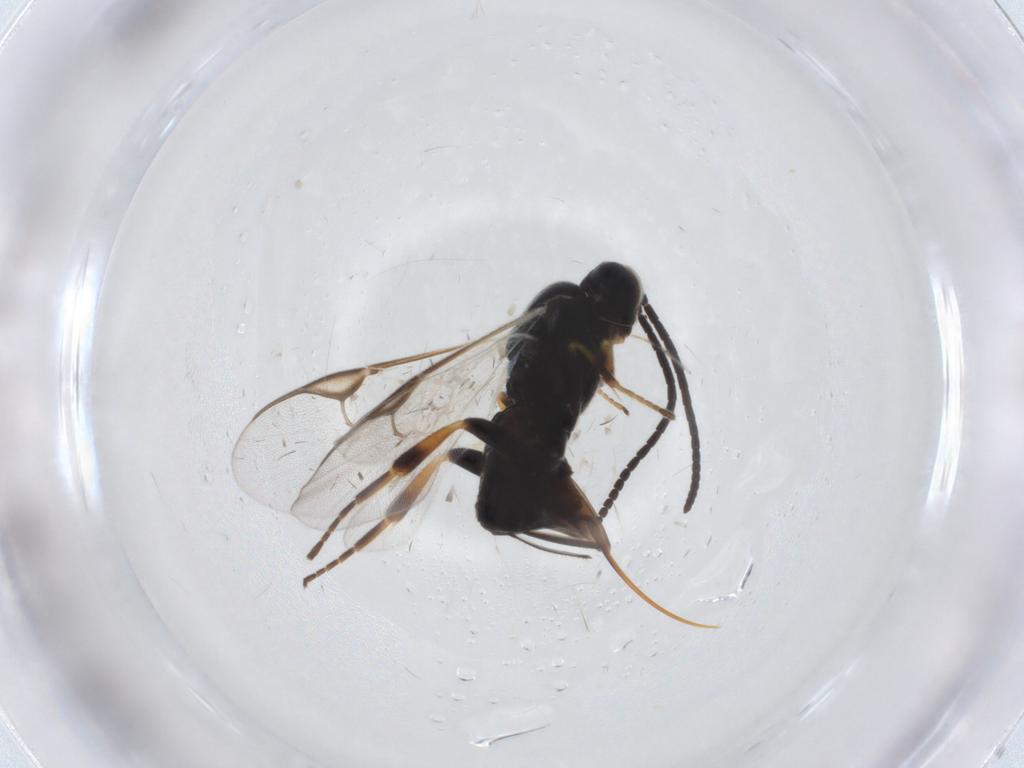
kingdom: Animalia
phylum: Arthropoda
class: Insecta
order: Hymenoptera
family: Braconidae
